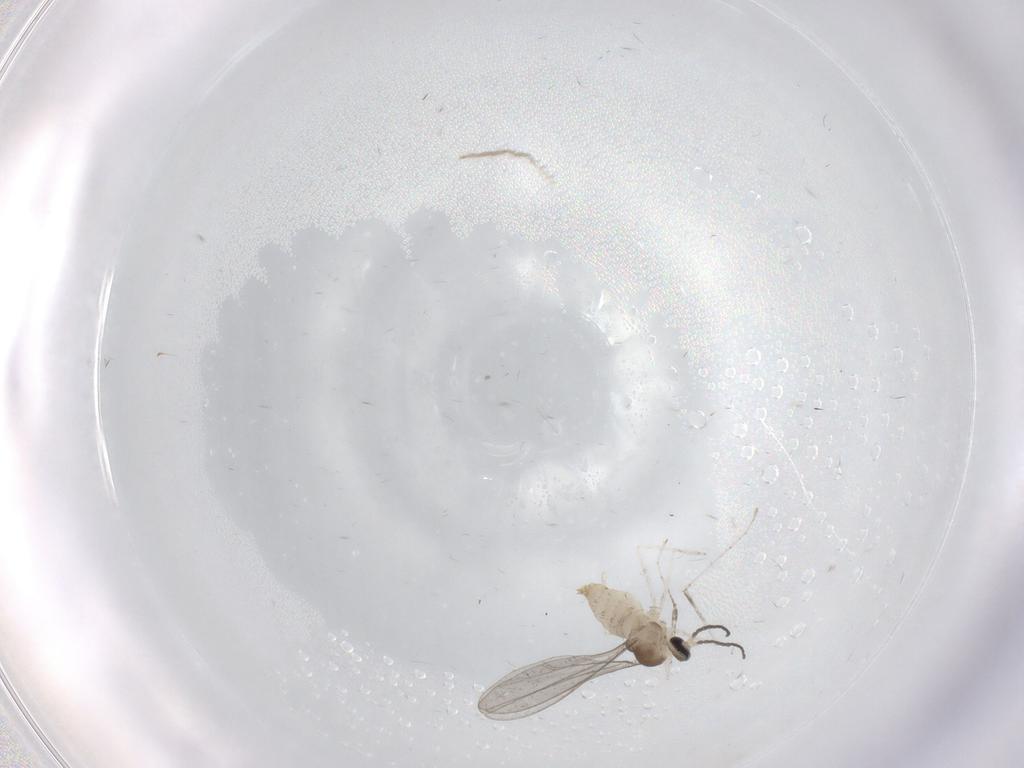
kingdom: Animalia
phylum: Arthropoda
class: Insecta
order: Diptera
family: Cecidomyiidae
